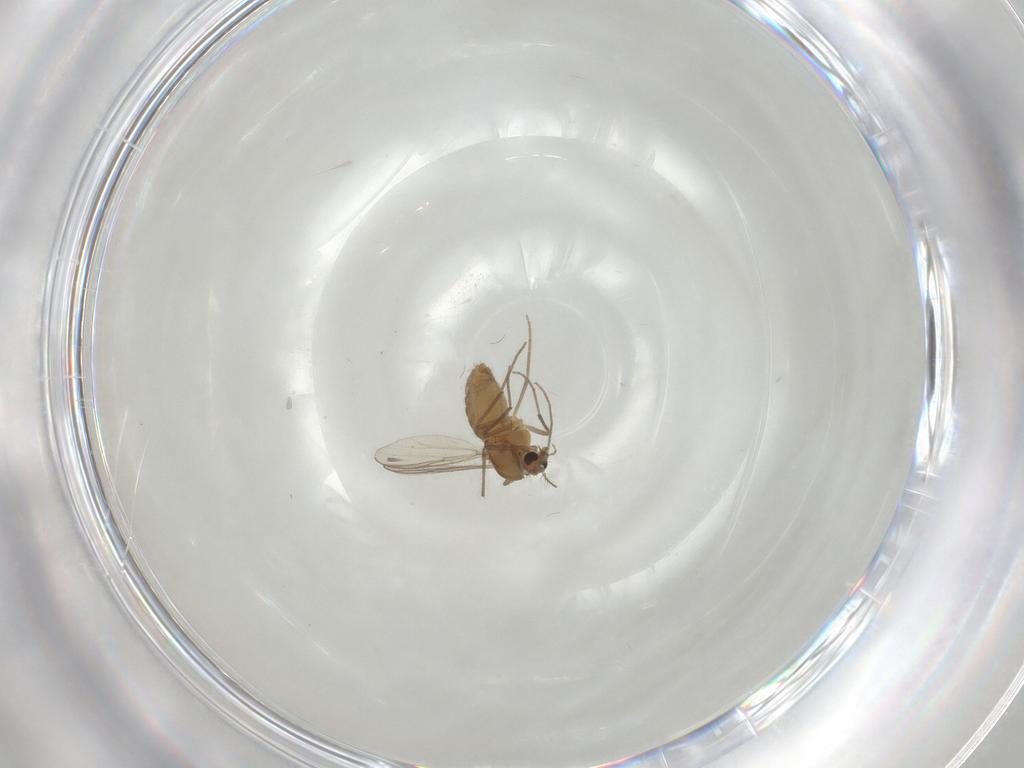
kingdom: Animalia
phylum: Arthropoda
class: Insecta
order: Diptera
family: Chironomidae
